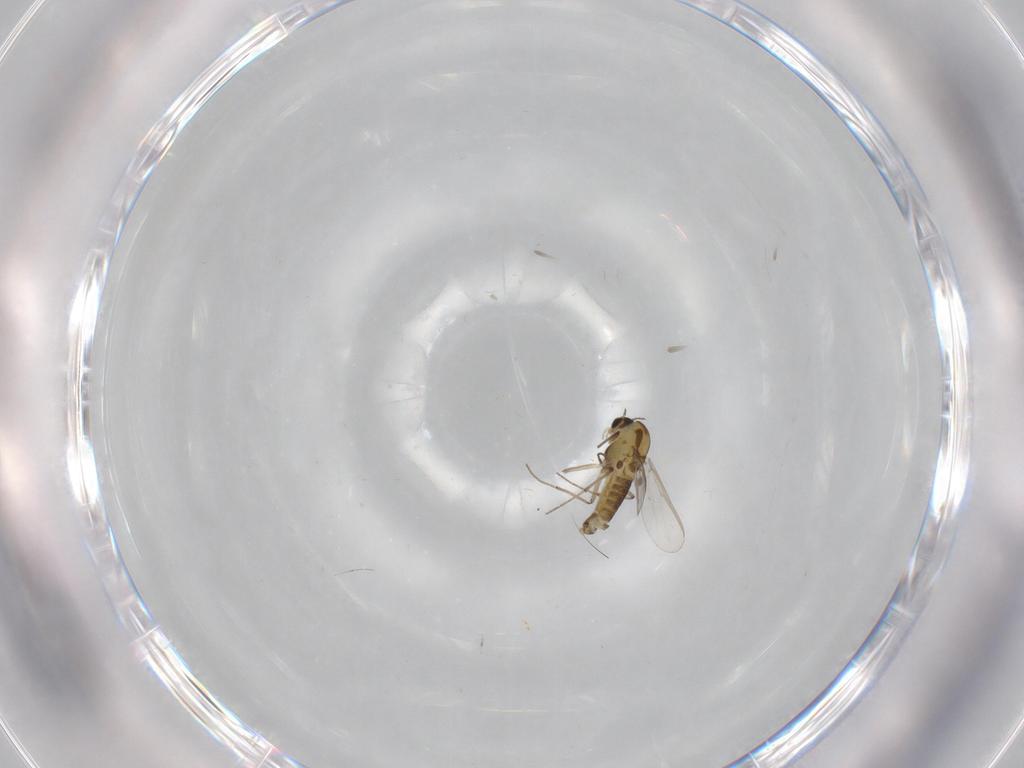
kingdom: Animalia
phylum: Arthropoda
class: Insecta
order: Diptera
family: Chironomidae
